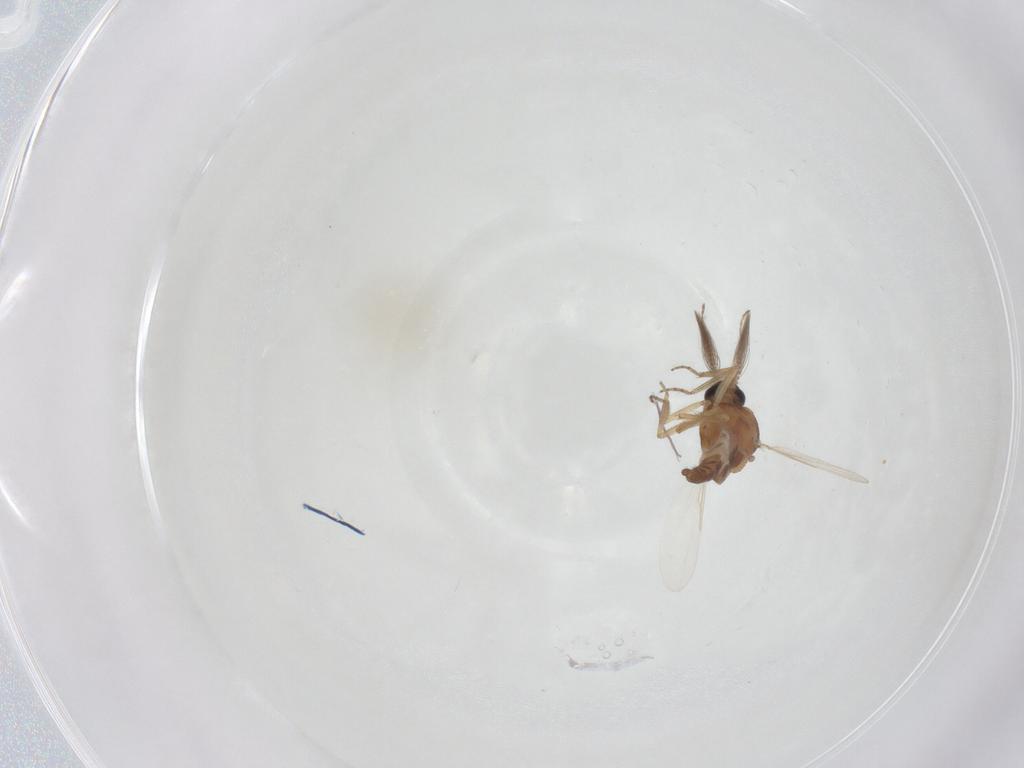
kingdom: Animalia
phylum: Arthropoda
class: Insecta
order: Diptera
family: Ceratopogonidae
